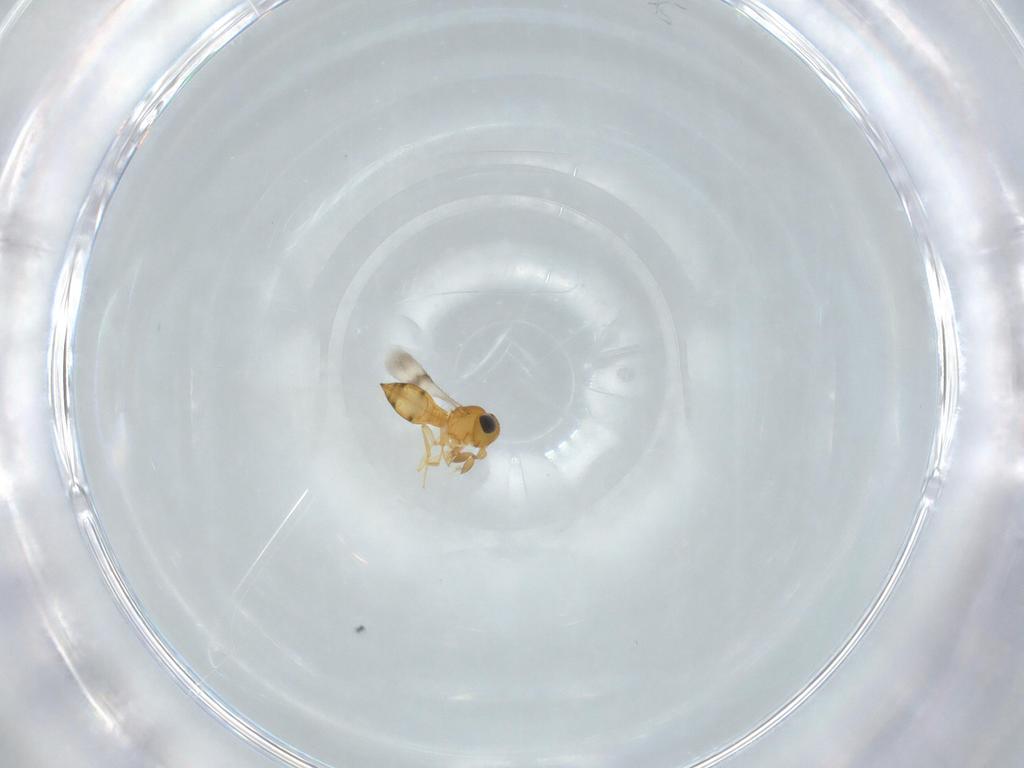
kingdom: Animalia
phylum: Arthropoda
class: Insecta
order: Hymenoptera
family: Scelionidae
